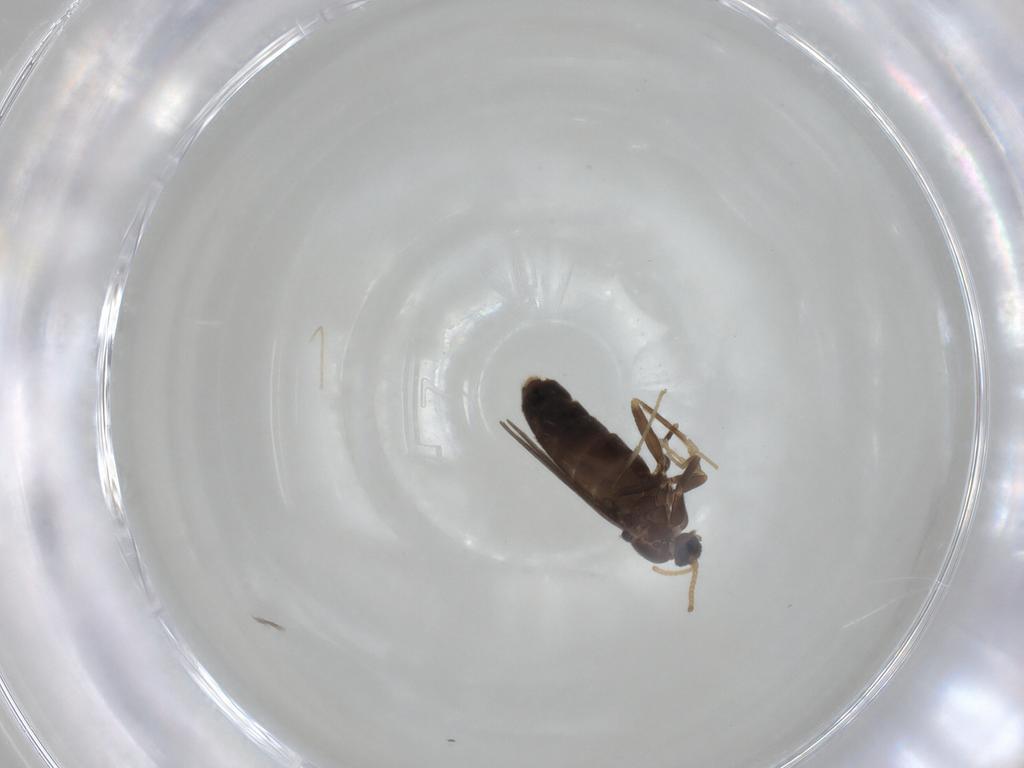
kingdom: Animalia
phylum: Arthropoda
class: Insecta
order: Diptera
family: Scatopsidae
